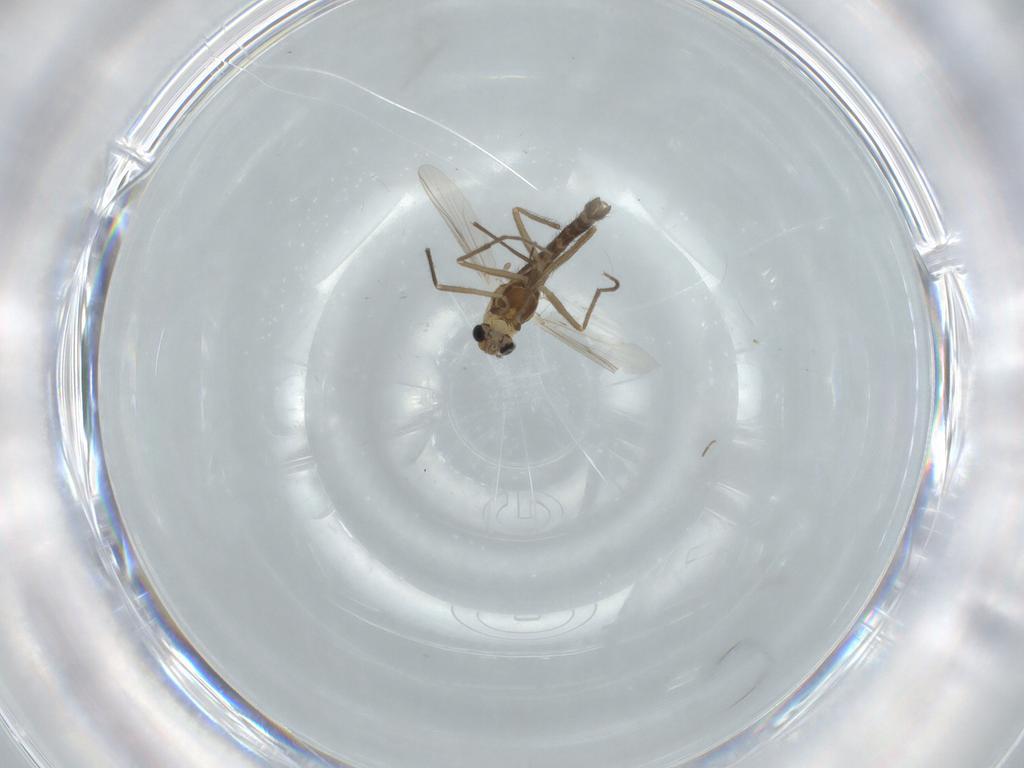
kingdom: Animalia
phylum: Arthropoda
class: Insecta
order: Diptera
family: Chironomidae
